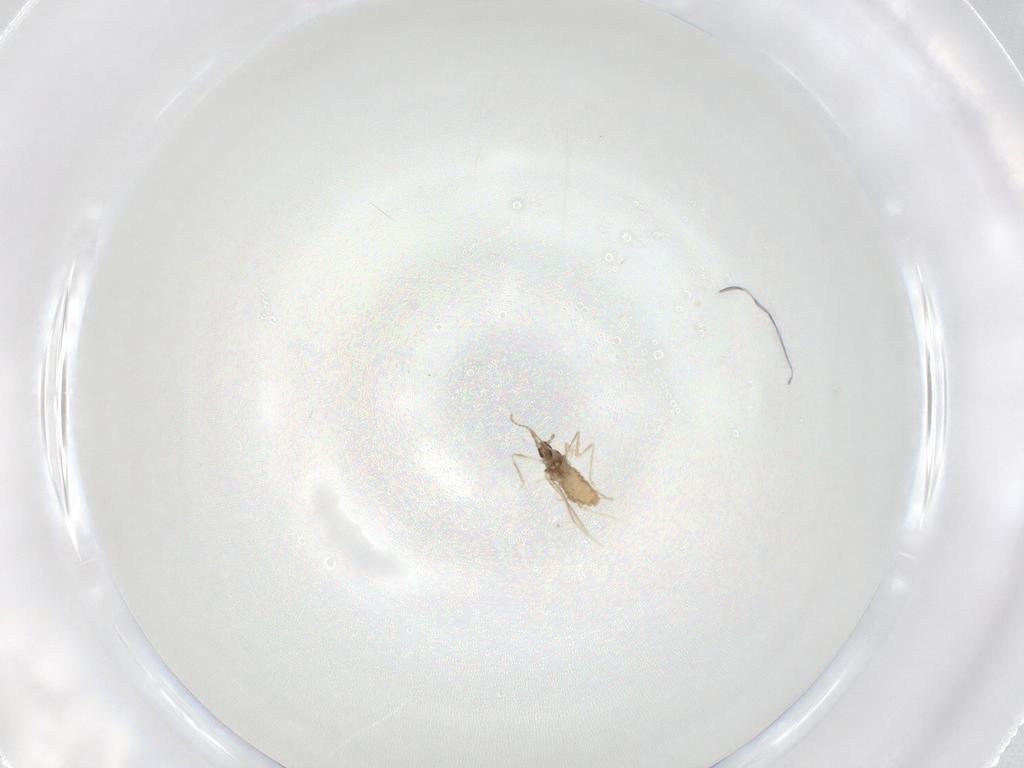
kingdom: Animalia
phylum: Arthropoda
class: Insecta
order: Diptera
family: Cecidomyiidae
